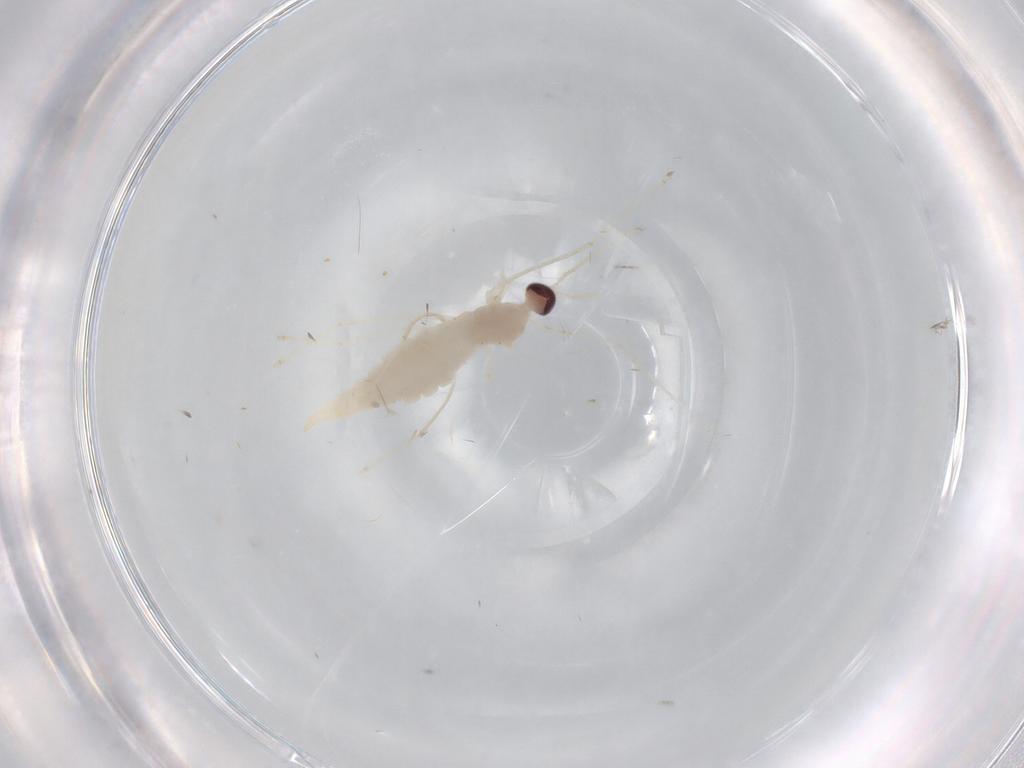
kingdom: Animalia
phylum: Arthropoda
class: Insecta
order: Diptera
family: Cecidomyiidae
